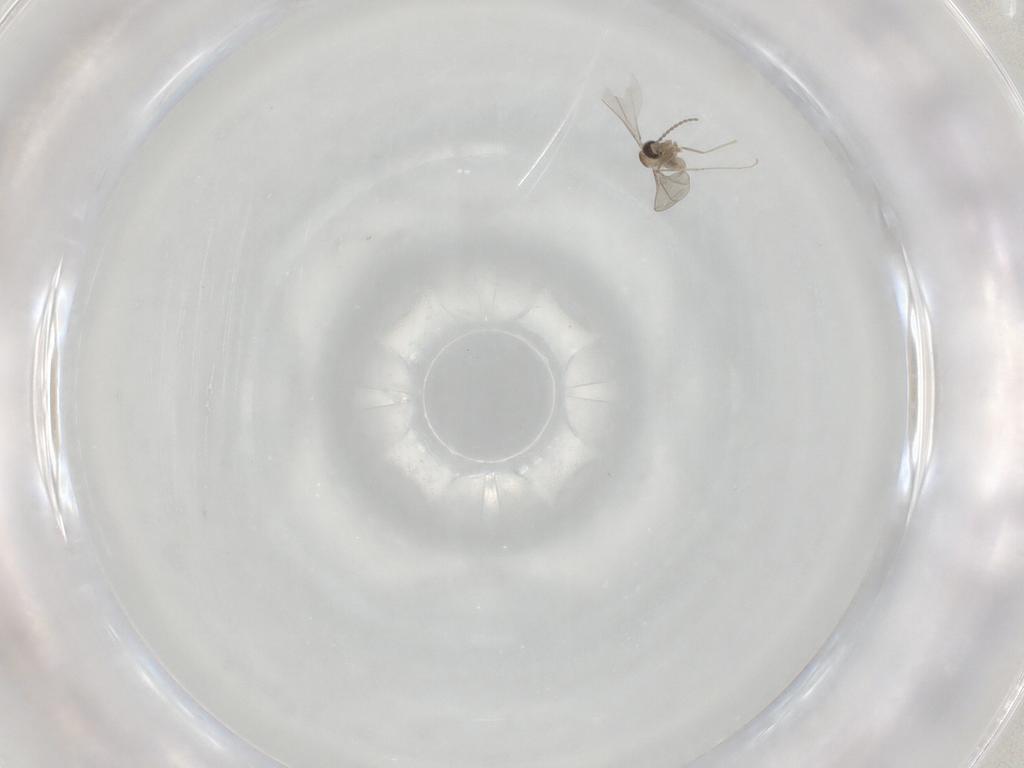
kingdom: Animalia
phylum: Arthropoda
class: Insecta
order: Diptera
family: Cecidomyiidae
